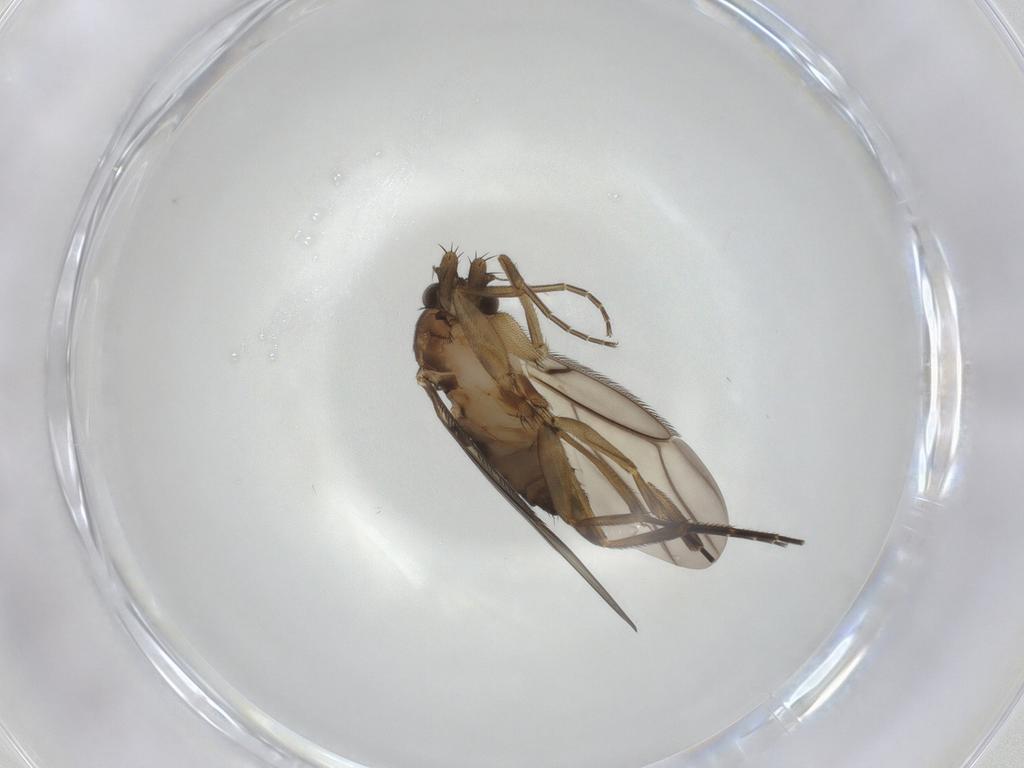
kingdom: Animalia
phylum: Arthropoda
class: Insecta
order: Diptera
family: Phoridae
